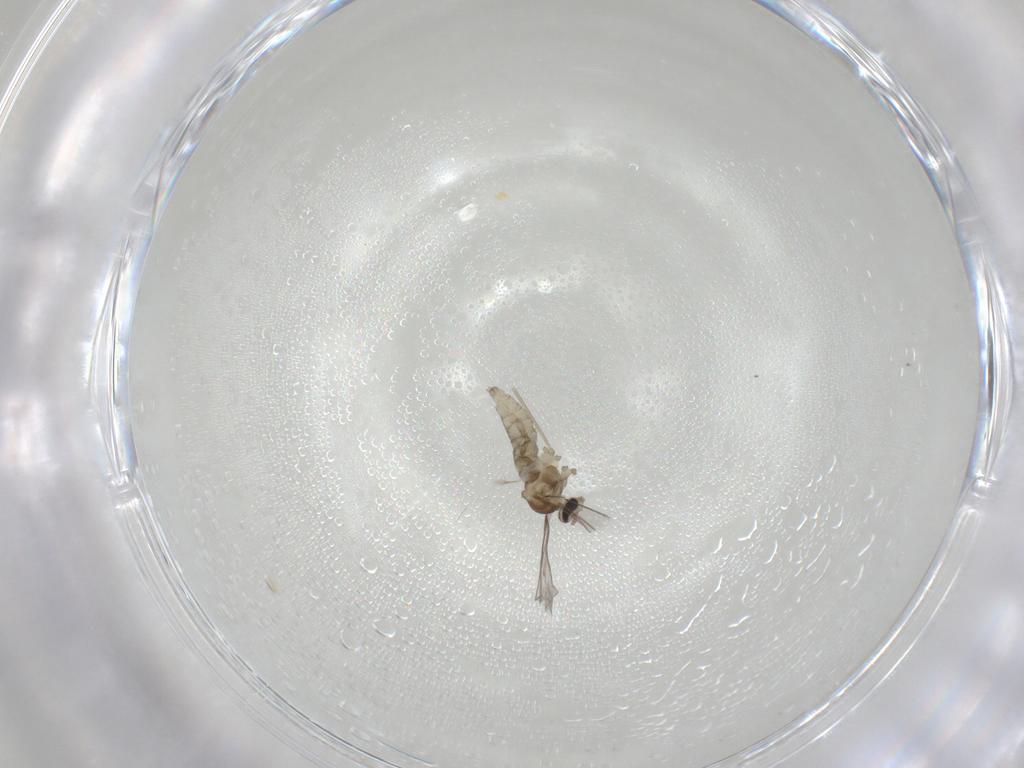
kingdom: Animalia
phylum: Arthropoda
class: Insecta
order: Diptera
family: Cecidomyiidae
